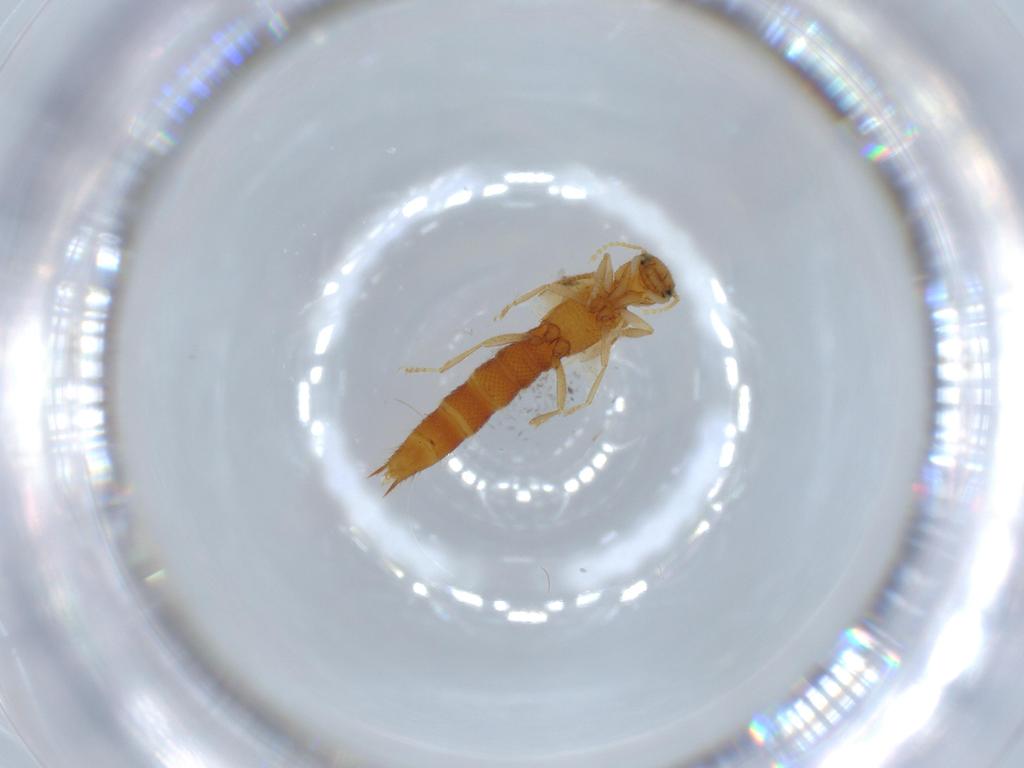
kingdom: Animalia
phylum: Arthropoda
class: Insecta
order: Coleoptera
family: Staphylinidae
